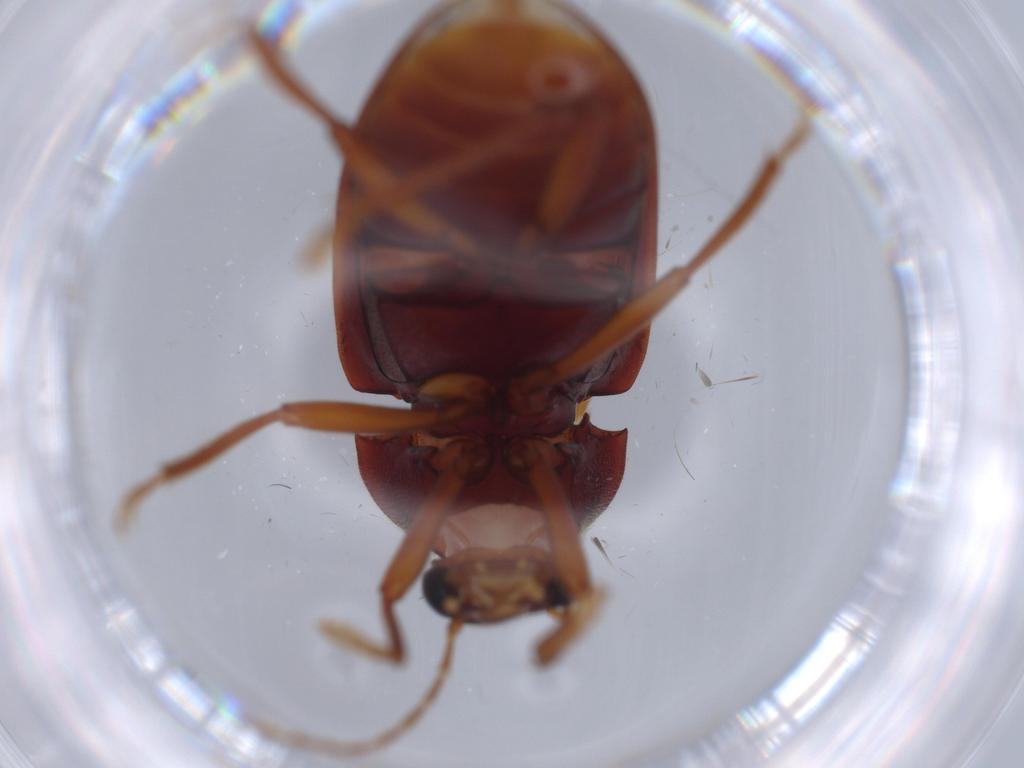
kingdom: Animalia
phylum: Arthropoda
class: Insecta
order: Coleoptera
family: Ptilodactylidae
